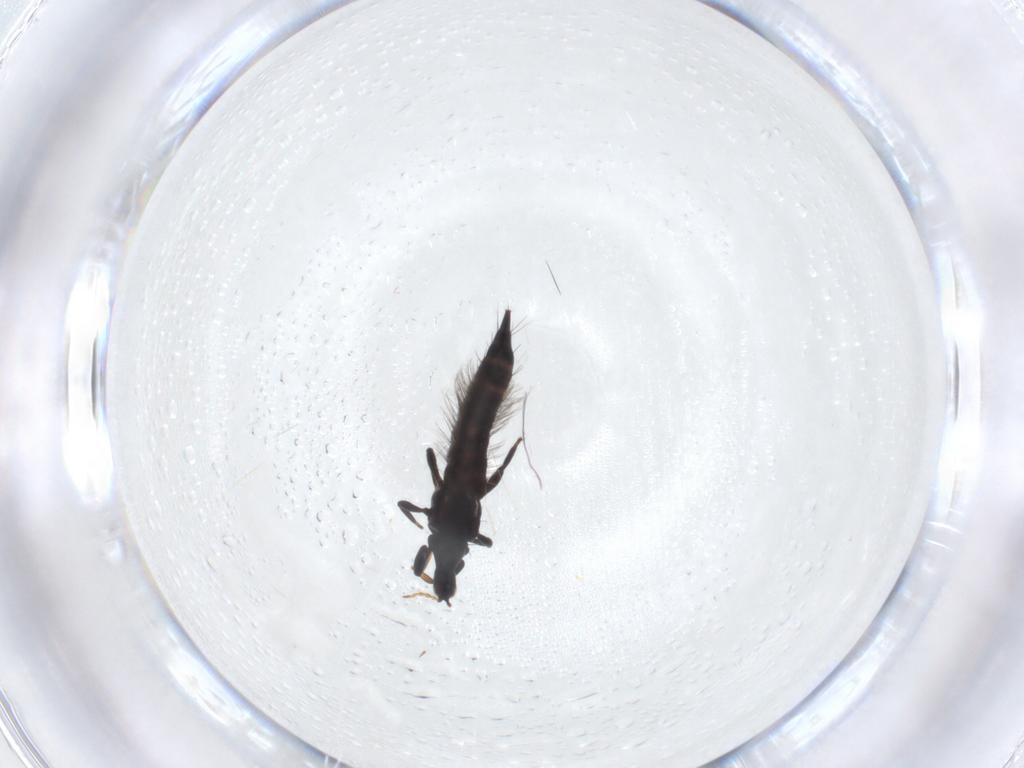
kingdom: Animalia
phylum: Arthropoda
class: Insecta
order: Thysanoptera
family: Phlaeothripidae
